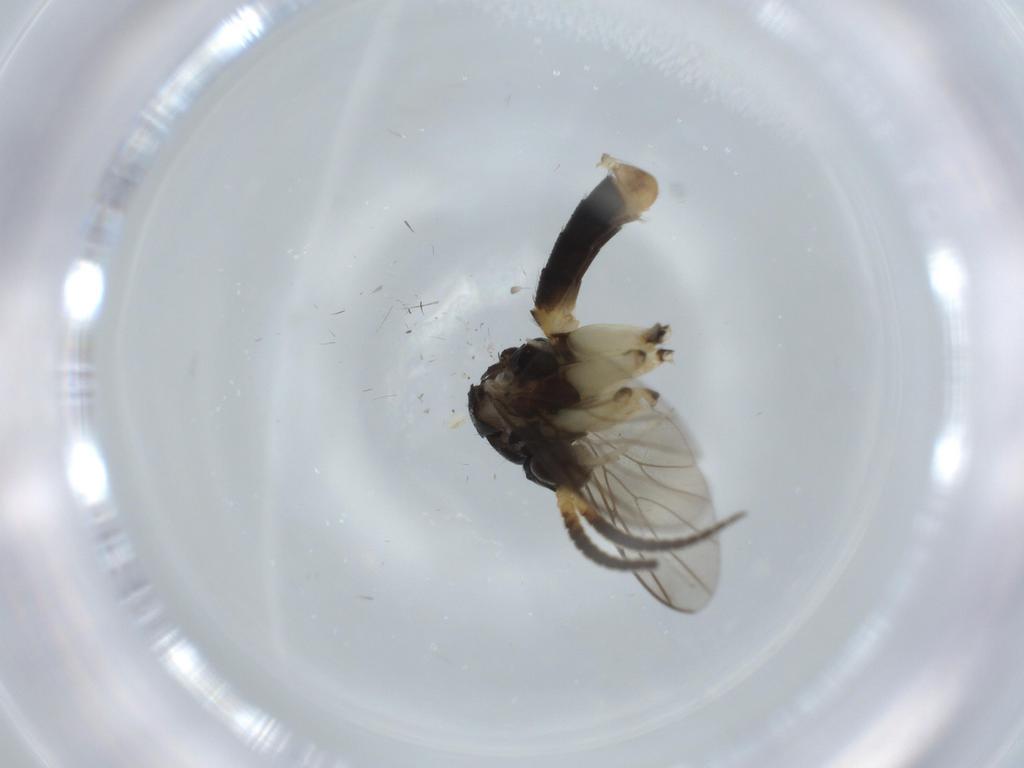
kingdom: Animalia
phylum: Arthropoda
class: Insecta
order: Diptera
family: Sciaridae
